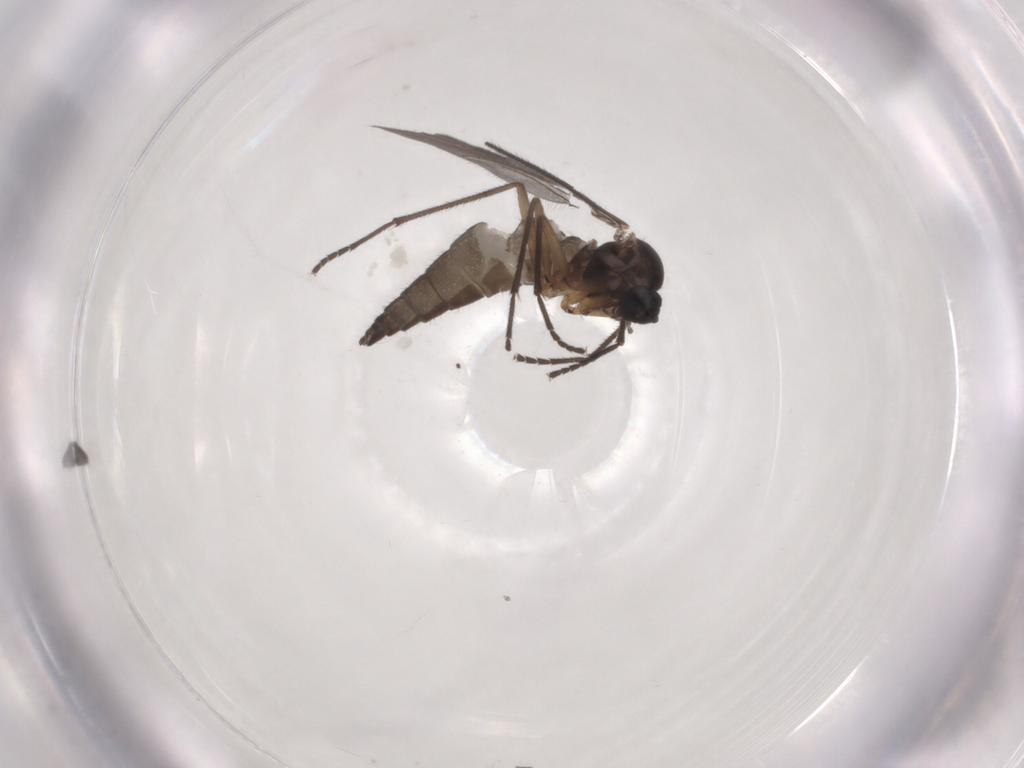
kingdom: Animalia
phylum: Arthropoda
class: Insecta
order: Diptera
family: Sciaridae
